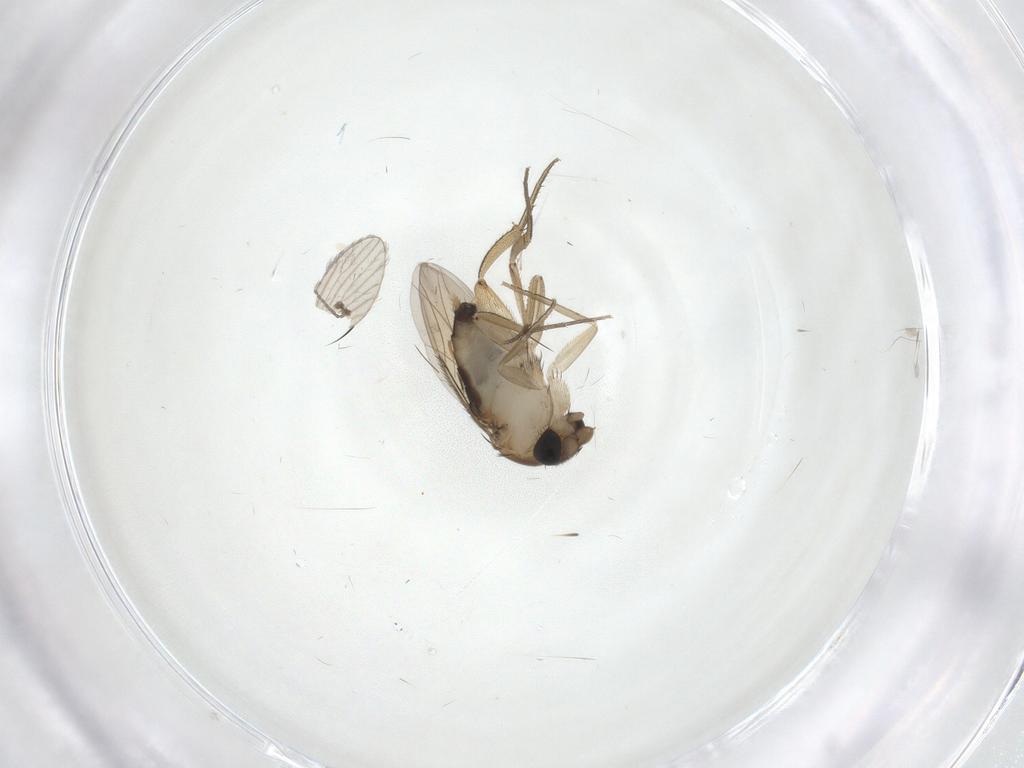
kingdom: Animalia
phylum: Arthropoda
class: Insecta
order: Diptera
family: Phoridae
